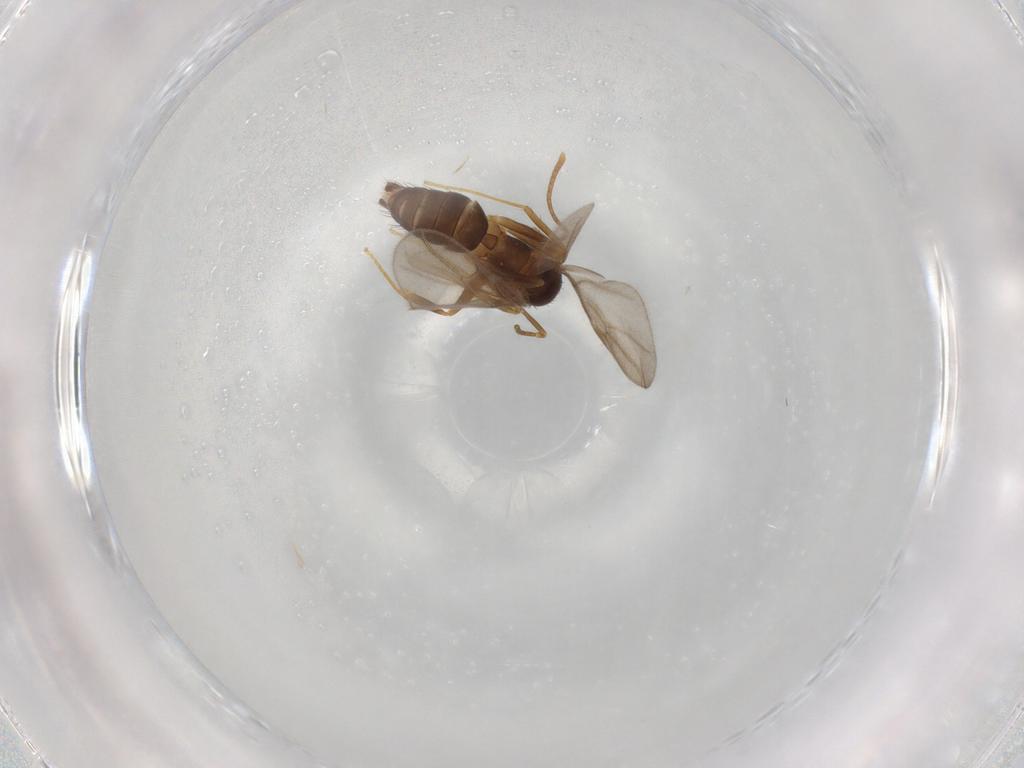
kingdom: Animalia
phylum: Arthropoda
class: Insecta
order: Hymenoptera
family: Formicidae
